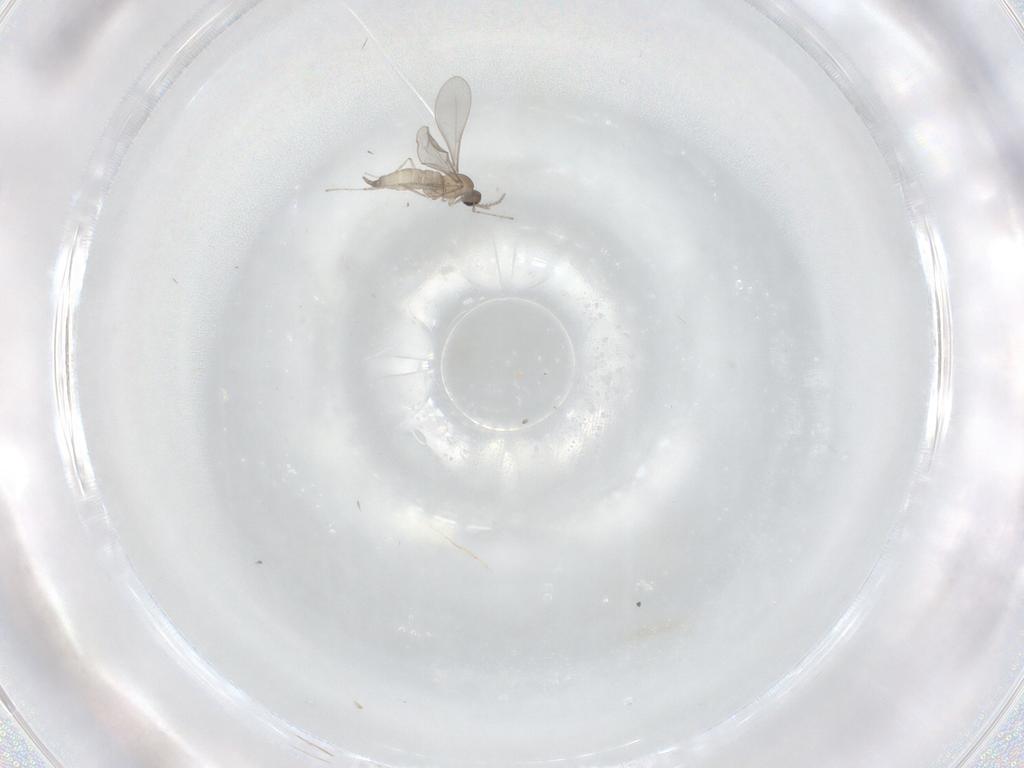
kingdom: Animalia
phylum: Arthropoda
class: Insecta
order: Diptera
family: Cecidomyiidae
